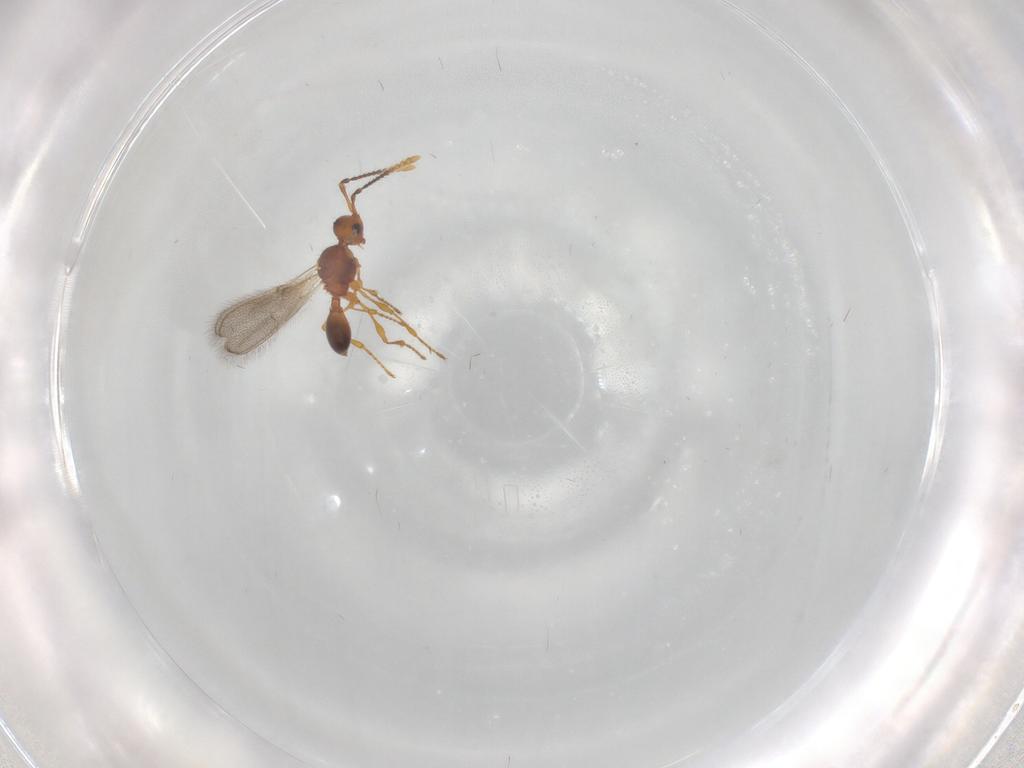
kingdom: Animalia
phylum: Arthropoda
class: Insecta
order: Hymenoptera
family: Diapriidae
